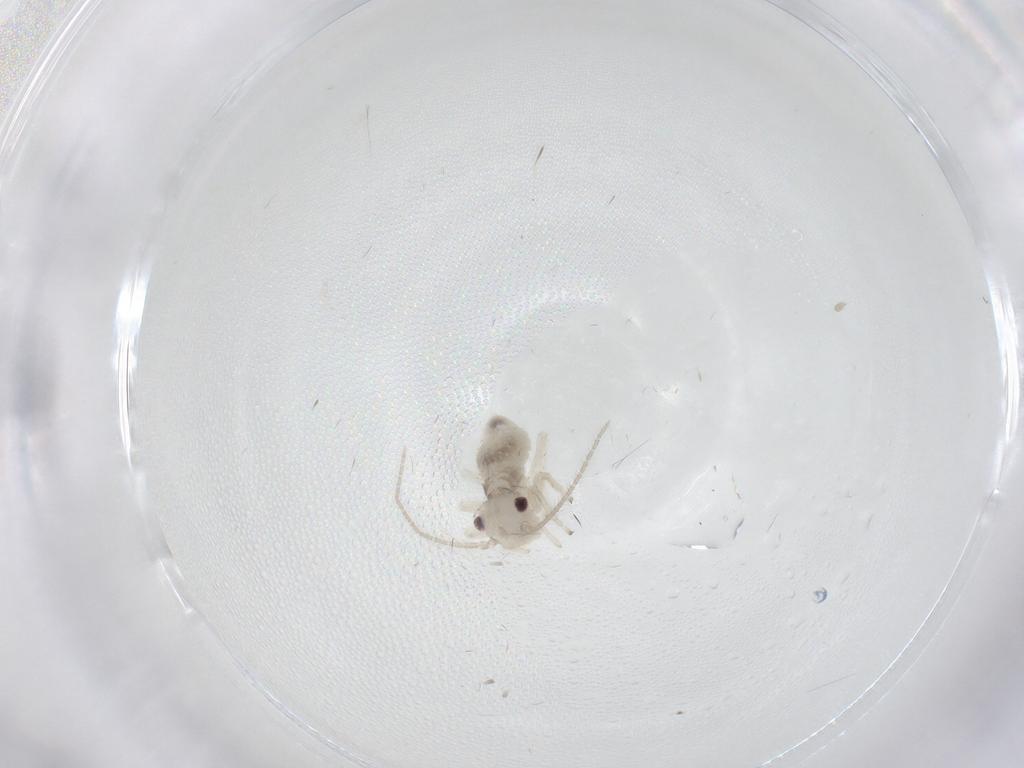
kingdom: Animalia
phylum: Arthropoda
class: Insecta
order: Psocodea
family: Amphipsocidae
